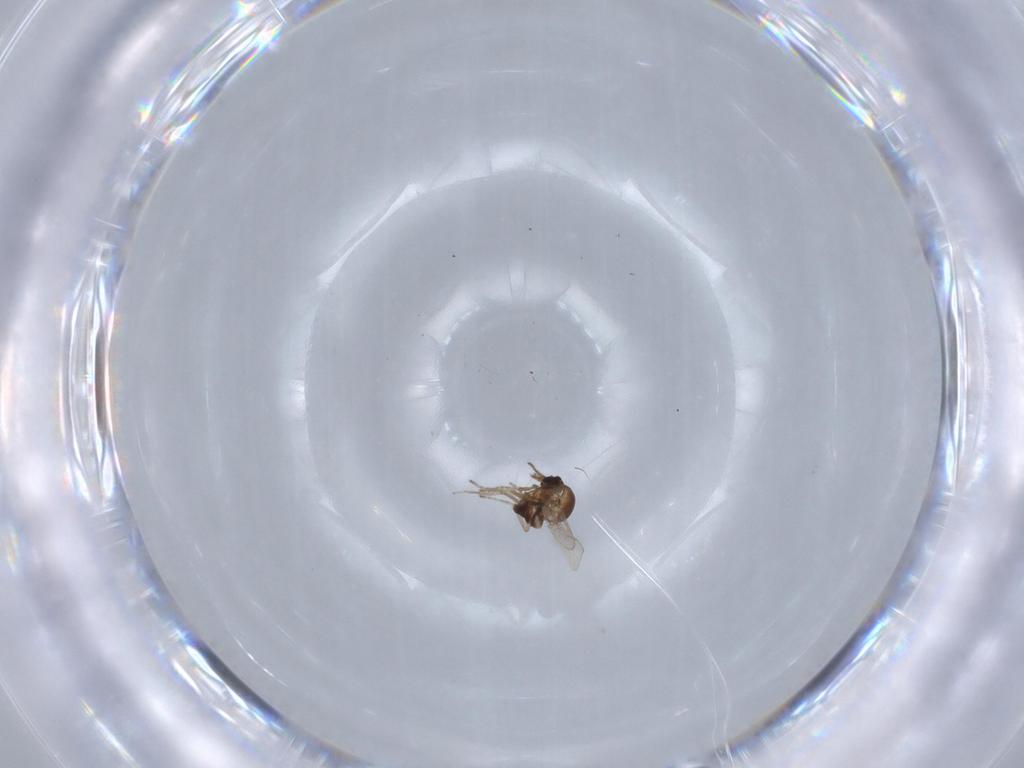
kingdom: Animalia
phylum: Arthropoda
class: Insecta
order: Diptera
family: Ceratopogonidae
